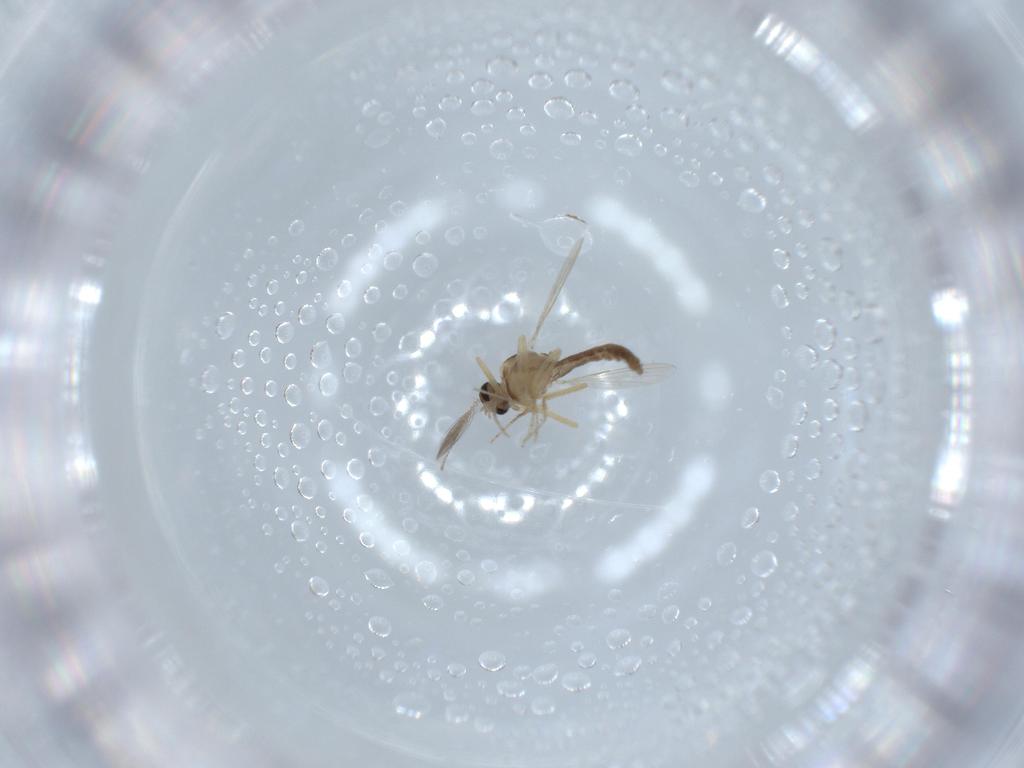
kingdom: Animalia
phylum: Arthropoda
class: Insecta
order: Diptera
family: Ceratopogonidae
